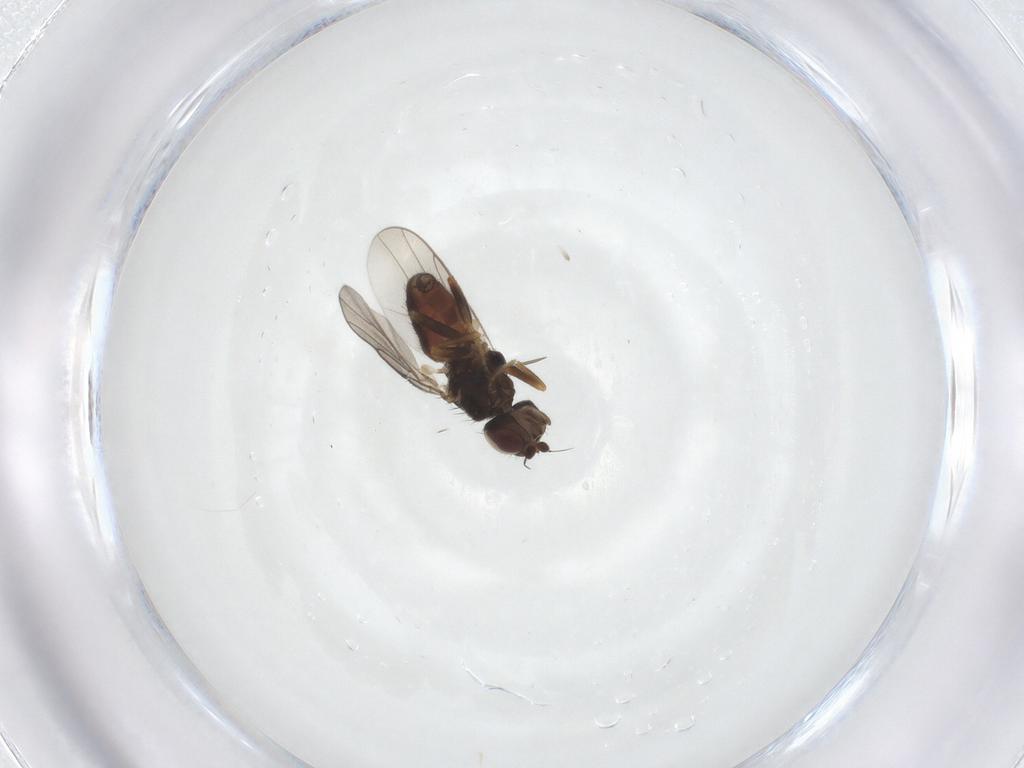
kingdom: Animalia
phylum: Arthropoda
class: Insecta
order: Diptera
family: Chloropidae
